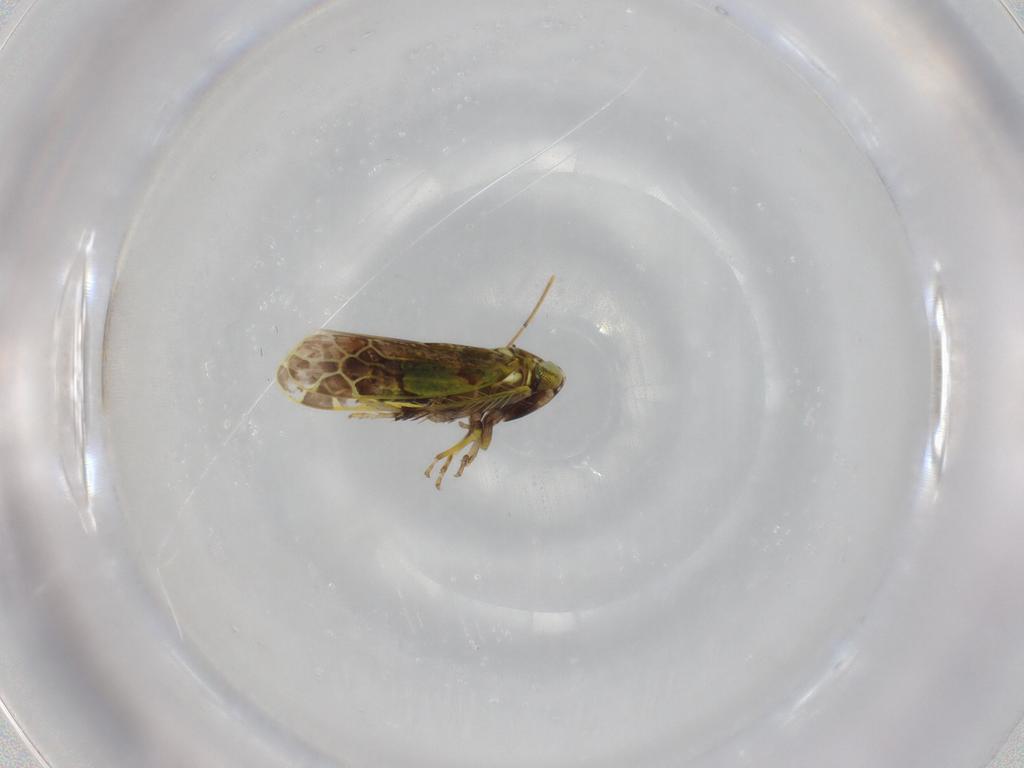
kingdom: Animalia
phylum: Arthropoda
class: Insecta
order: Hemiptera
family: Cicadellidae
